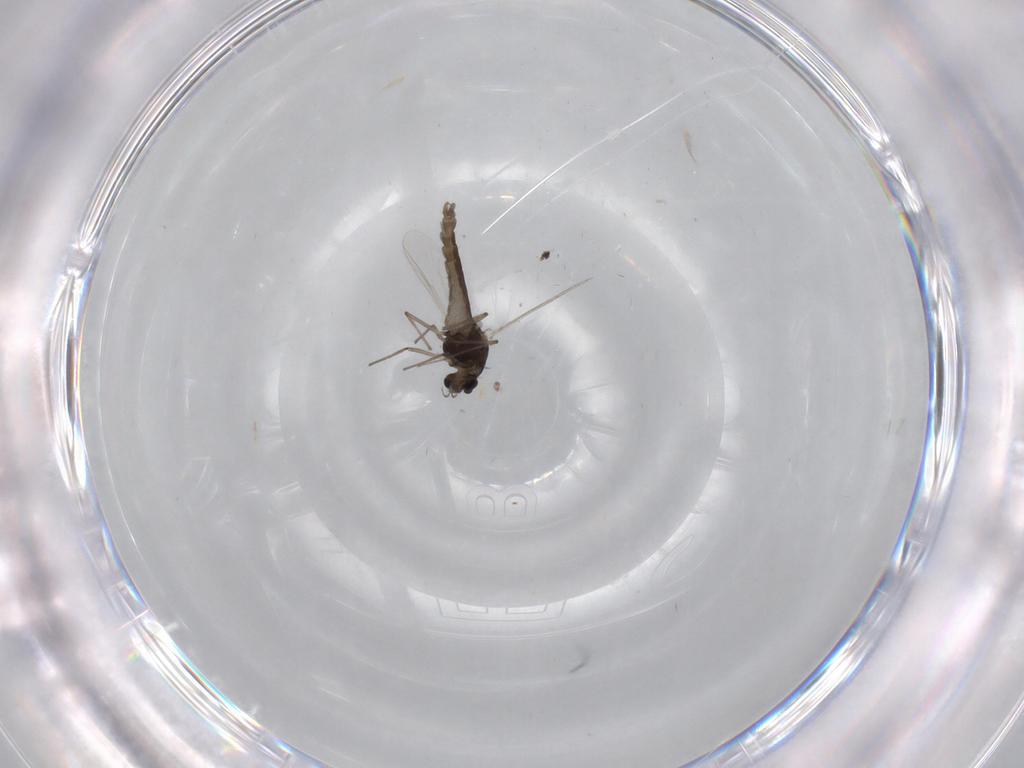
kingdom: Animalia
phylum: Arthropoda
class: Insecta
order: Diptera
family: Chironomidae
